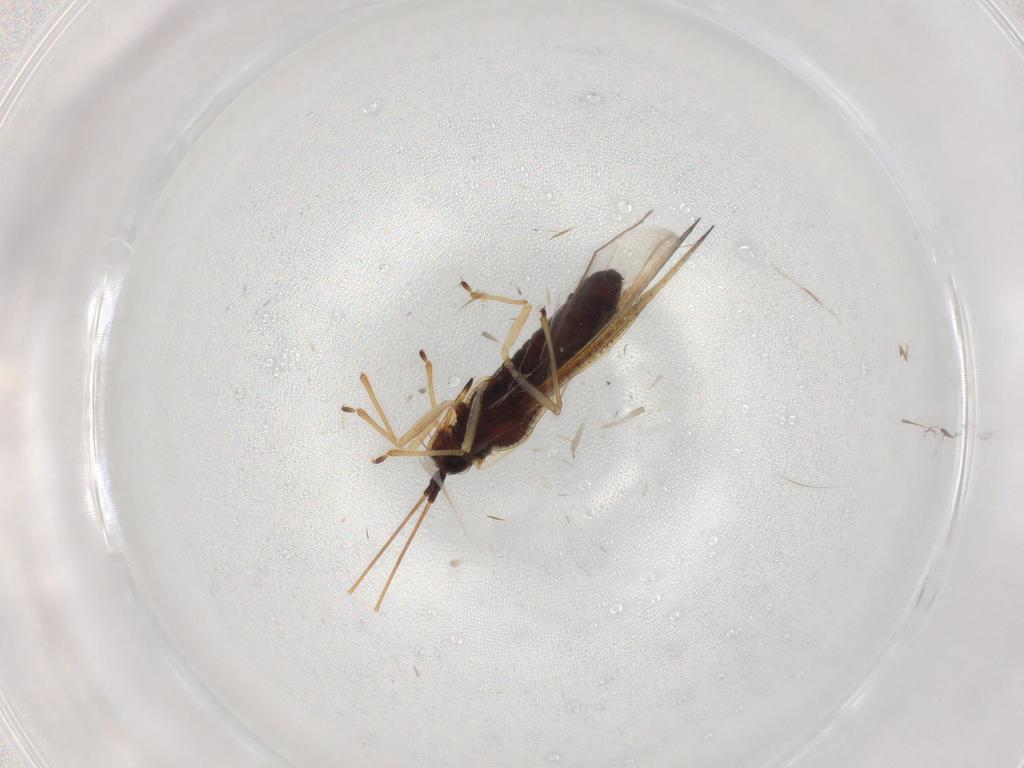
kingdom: Animalia
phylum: Arthropoda
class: Insecta
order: Hemiptera
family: Tingidae
